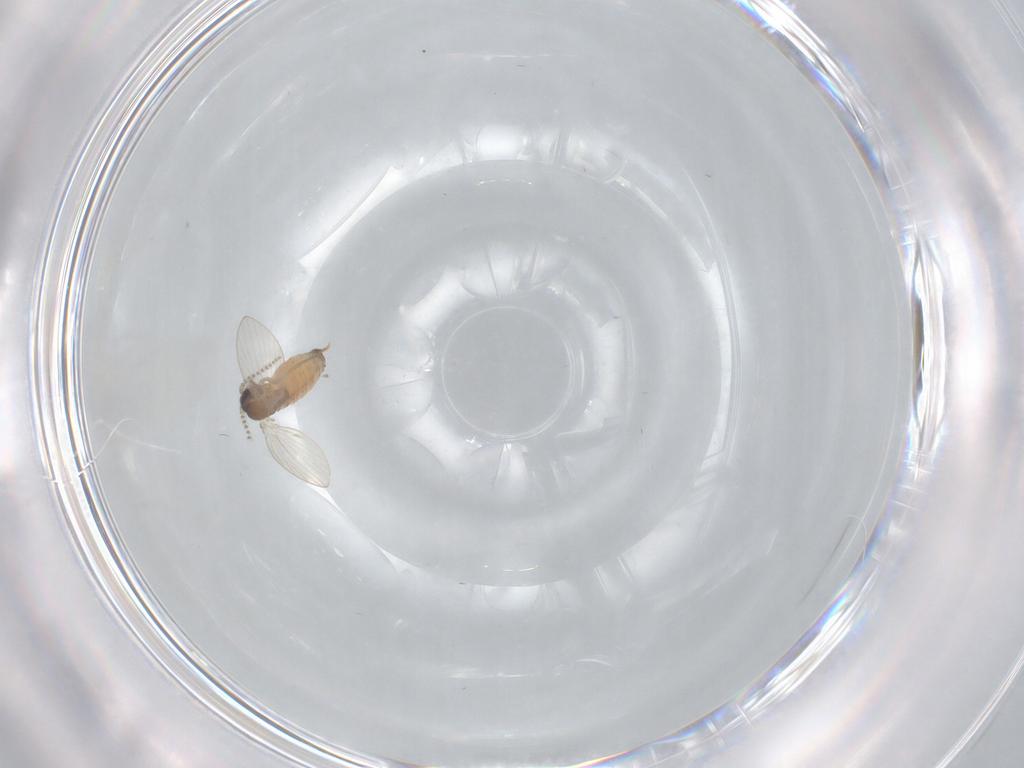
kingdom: Animalia
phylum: Arthropoda
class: Insecta
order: Diptera
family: Psychodidae
